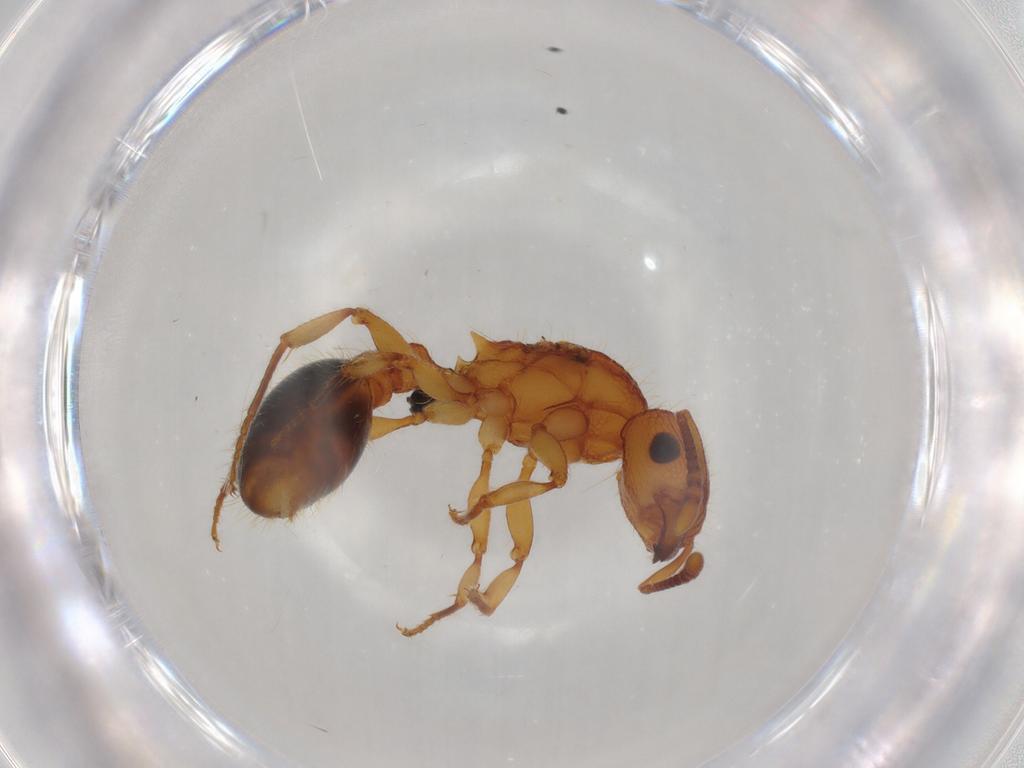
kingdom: Animalia
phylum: Arthropoda
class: Insecta
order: Hymenoptera
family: Formicidae
